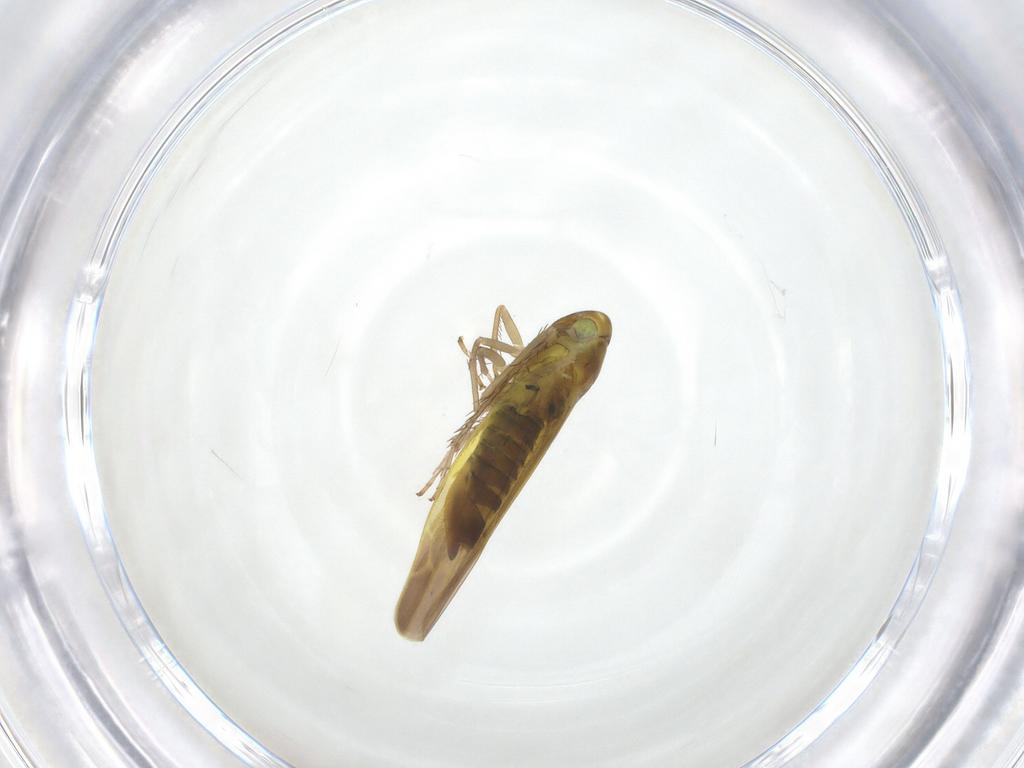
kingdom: Animalia
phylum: Arthropoda
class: Insecta
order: Hemiptera
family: Cicadellidae
